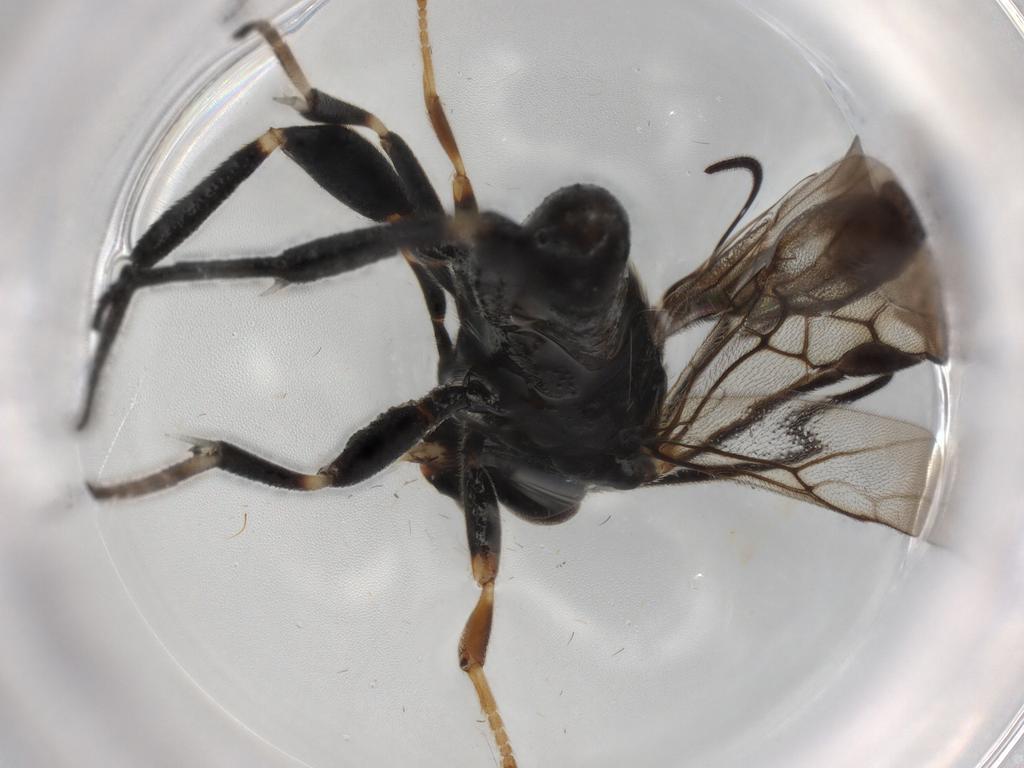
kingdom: Animalia
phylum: Arthropoda
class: Insecta
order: Hymenoptera
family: Braconidae
